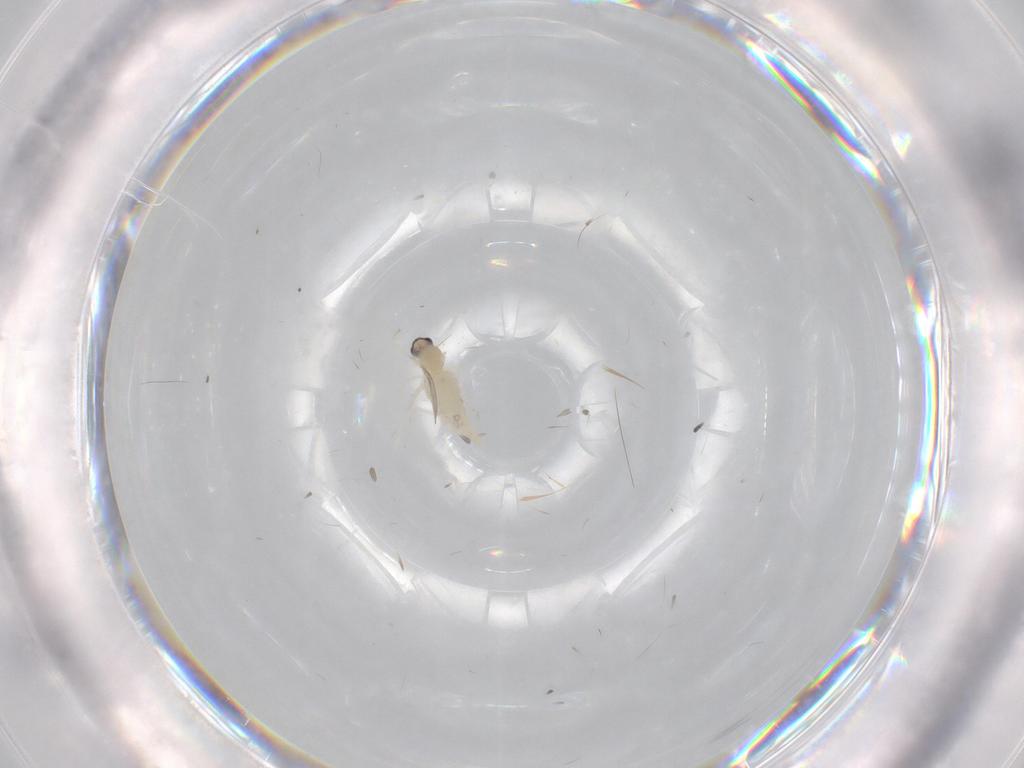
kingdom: Animalia
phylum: Arthropoda
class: Insecta
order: Diptera
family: Cecidomyiidae
